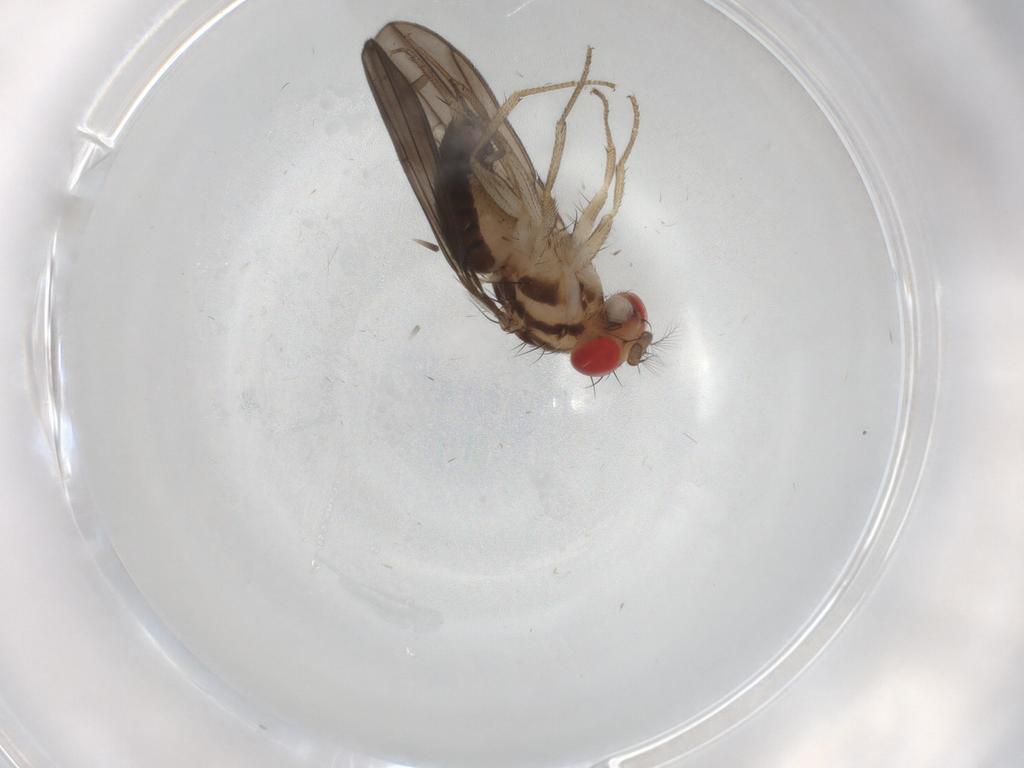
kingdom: Animalia
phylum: Arthropoda
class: Insecta
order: Diptera
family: Drosophilidae
